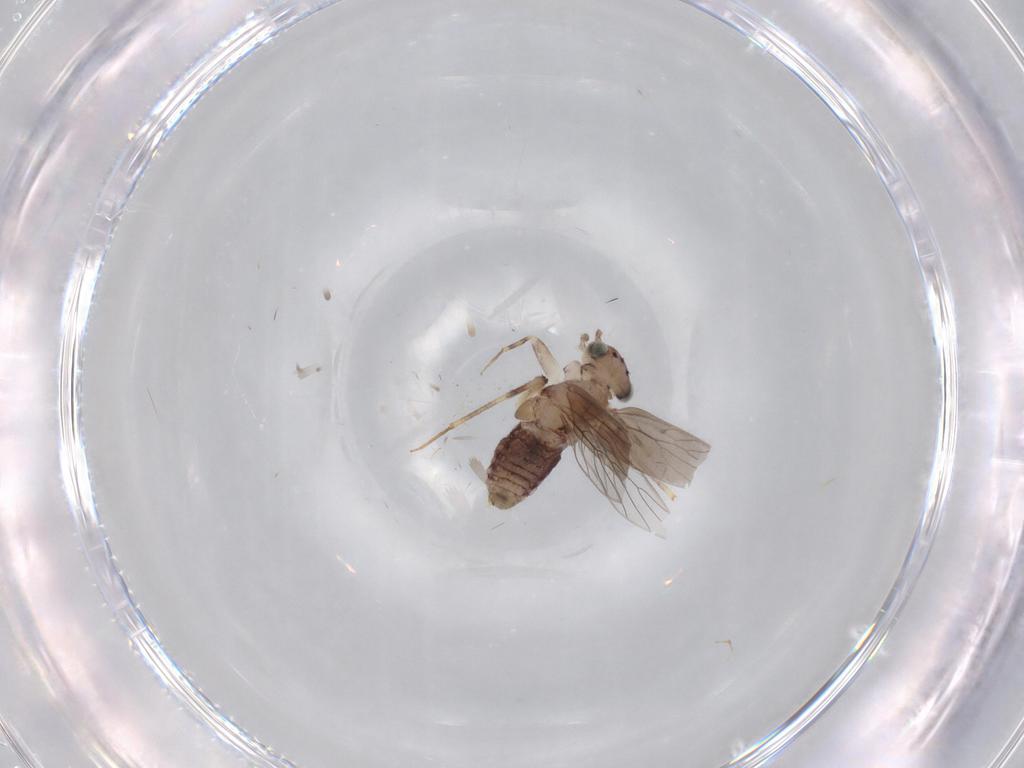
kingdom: Animalia
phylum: Arthropoda
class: Insecta
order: Psocodea
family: Lepidopsocidae
